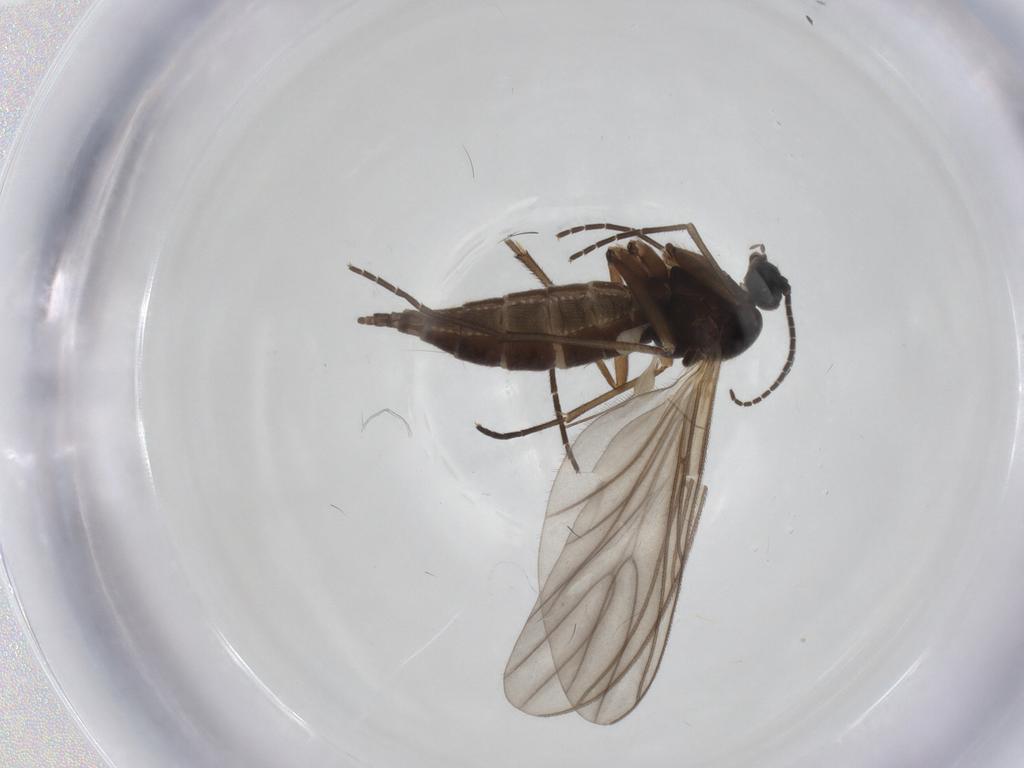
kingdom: Animalia
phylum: Arthropoda
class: Insecta
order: Diptera
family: Sciaridae
